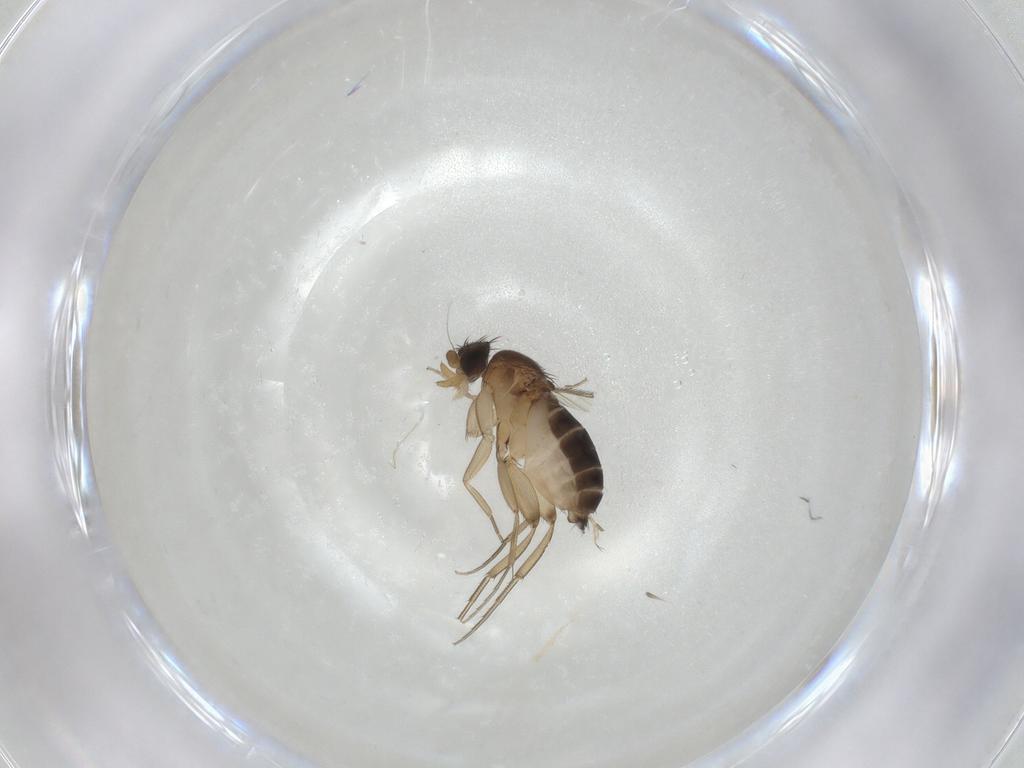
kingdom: Animalia
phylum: Arthropoda
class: Insecta
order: Diptera
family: Phoridae
